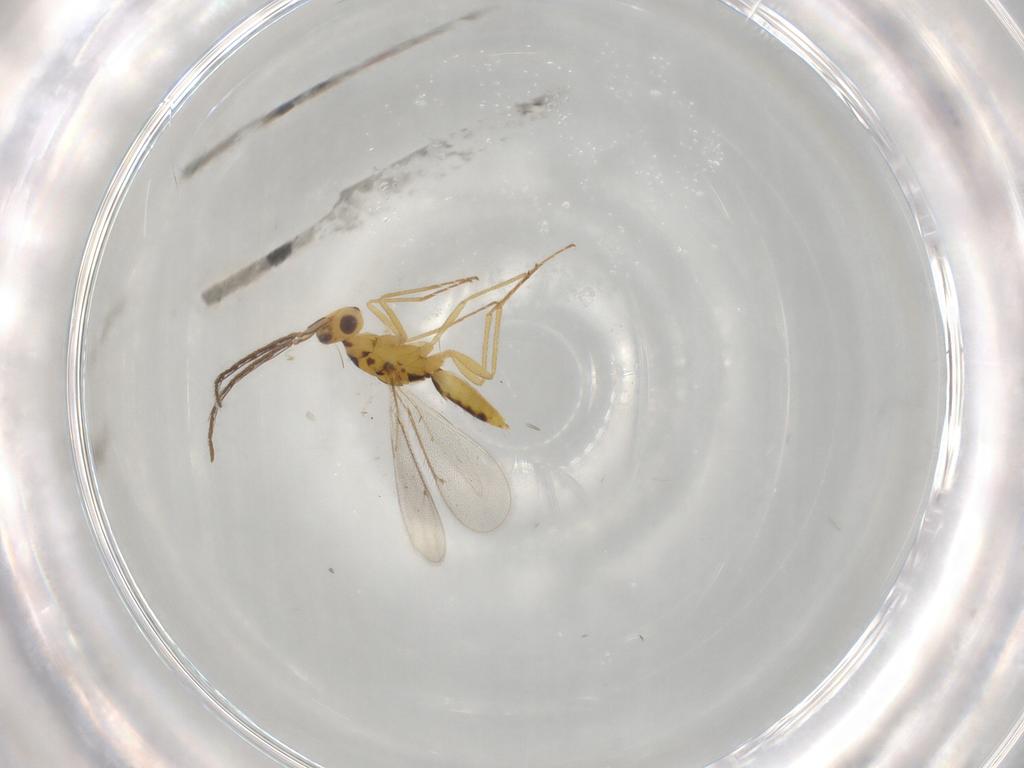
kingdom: Animalia
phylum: Arthropoda
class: Insecta
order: Hymenoptera
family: Eulophidae
